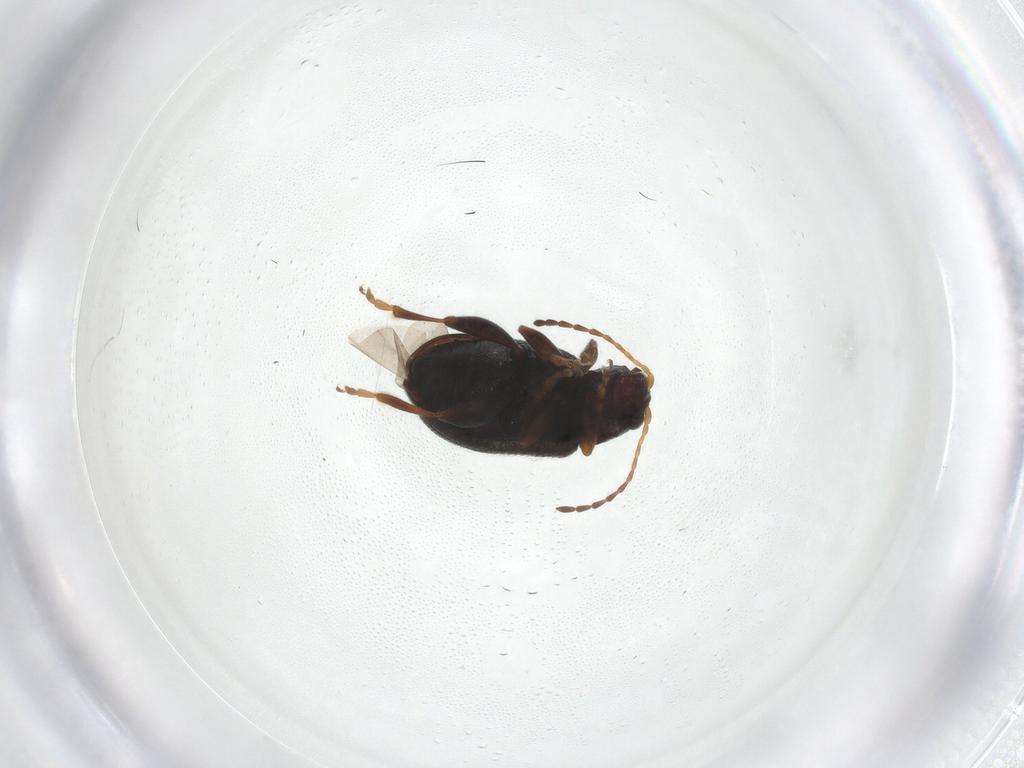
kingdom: Animalia
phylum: Arthropoda
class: Insecta
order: Coleoptera
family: Chrysomelidae
